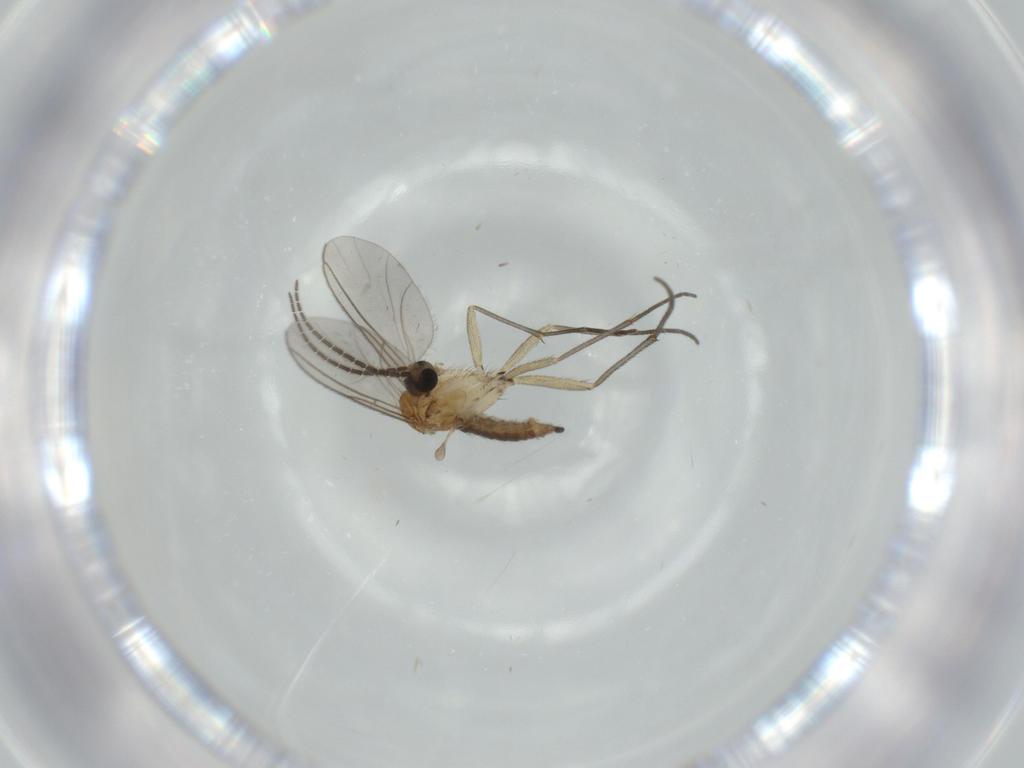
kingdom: Animalia
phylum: Arthropoda
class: Insecta
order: Diptera
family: Sciaridae
